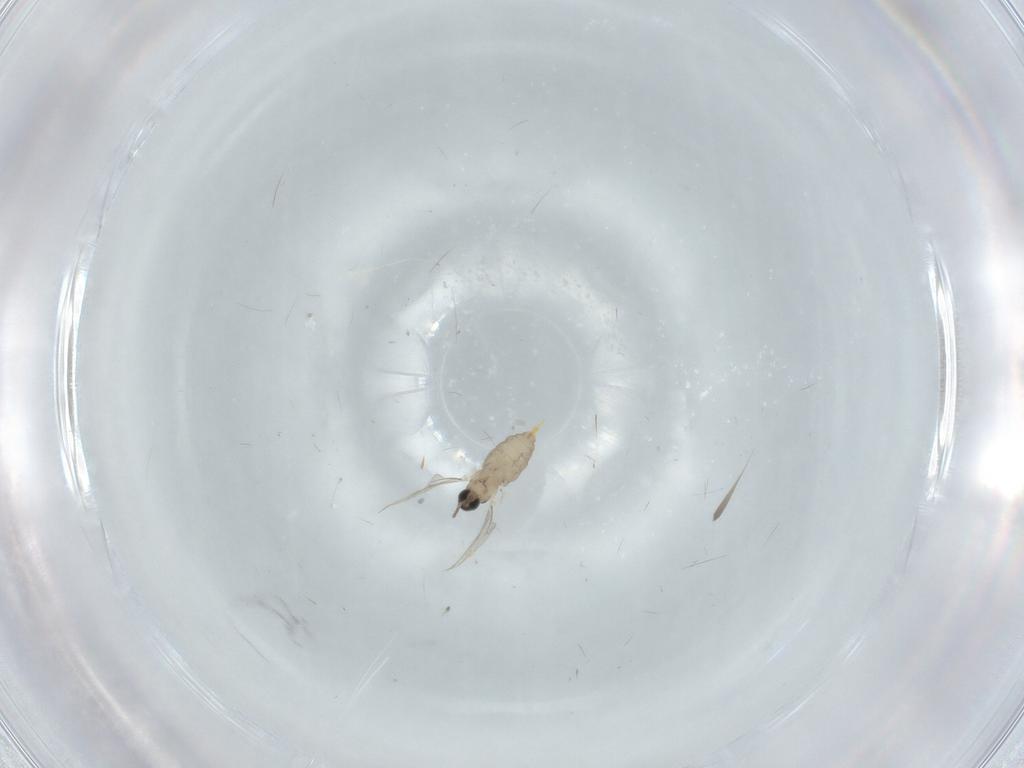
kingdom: Animalia
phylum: Arthropoda
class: Insecta
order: Diptera
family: Cecidomyiidae
